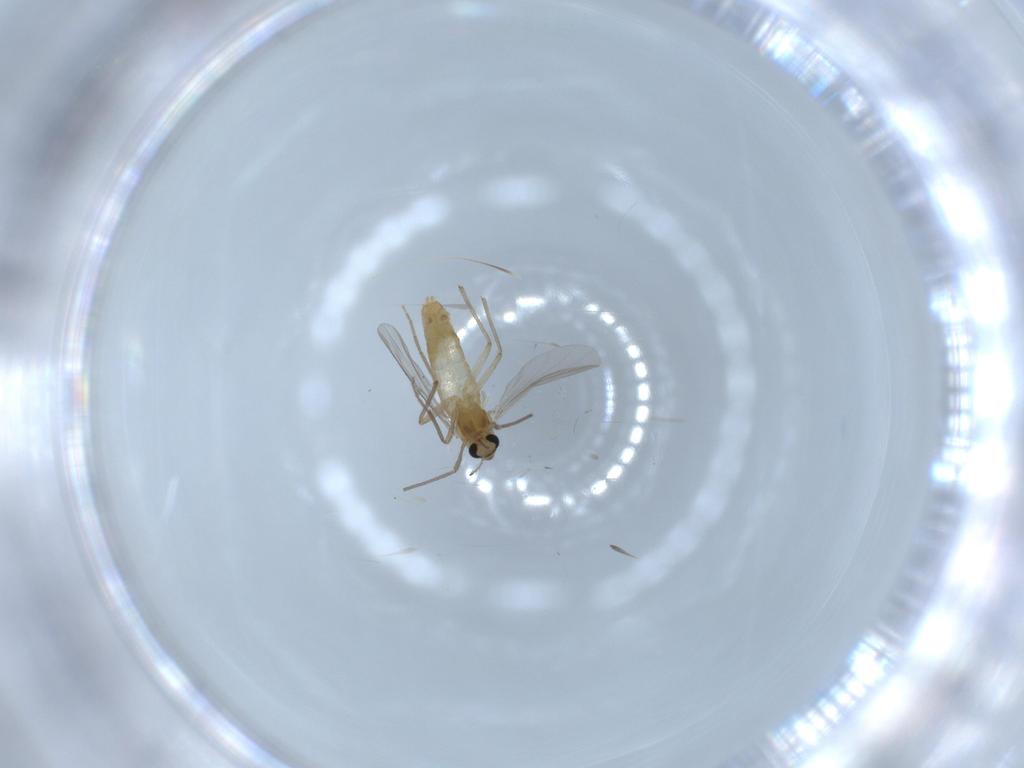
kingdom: Animalia
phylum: Arthropoda
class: Insecta
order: Diptera
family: Chironomidae
